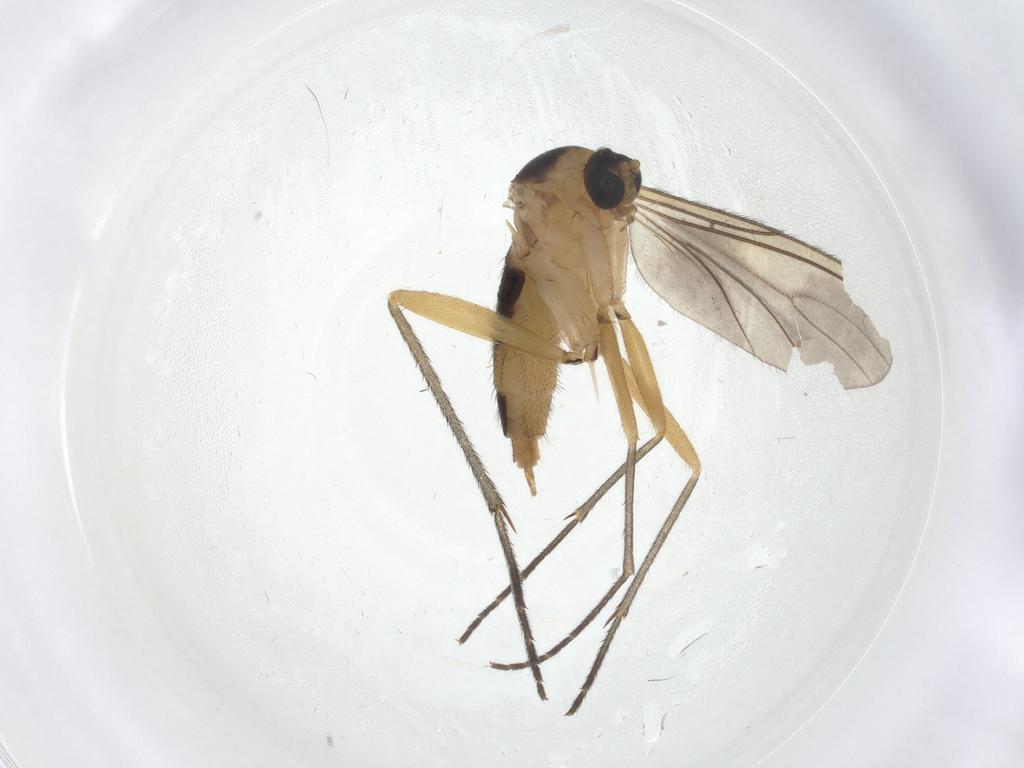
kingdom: Animalia
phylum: Arthropoda
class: Insecta
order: Diptera
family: Sciaridae
